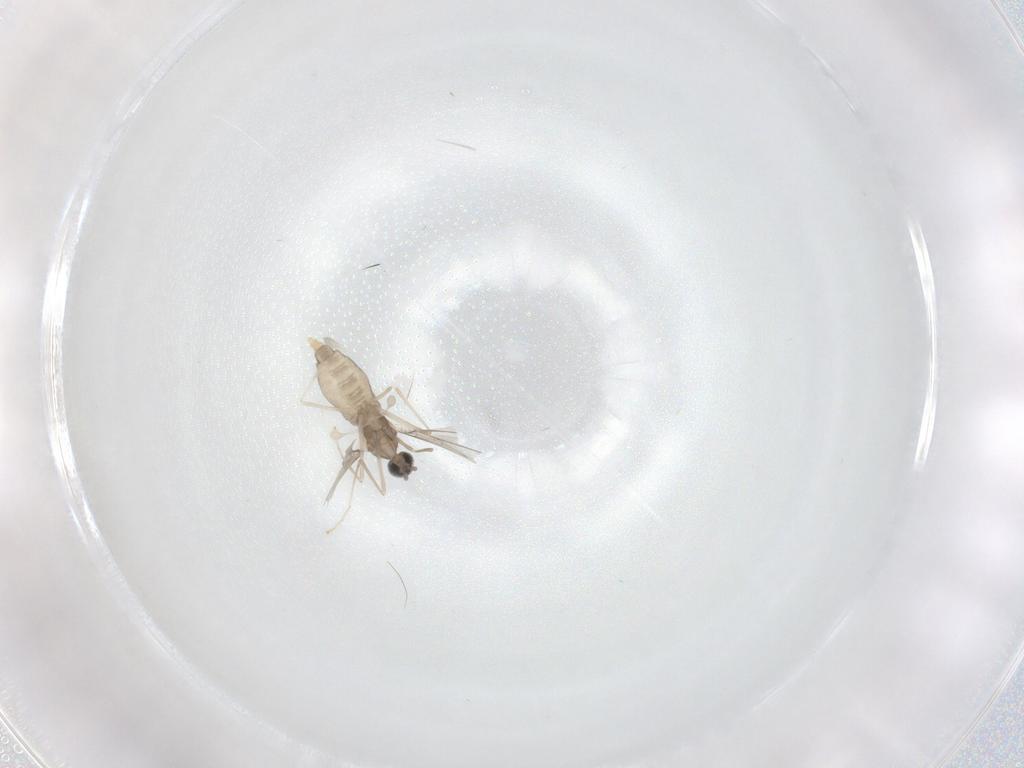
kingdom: Animalia
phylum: Arthropoda
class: Insecta
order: Diptera
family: Cecidomyiidae
